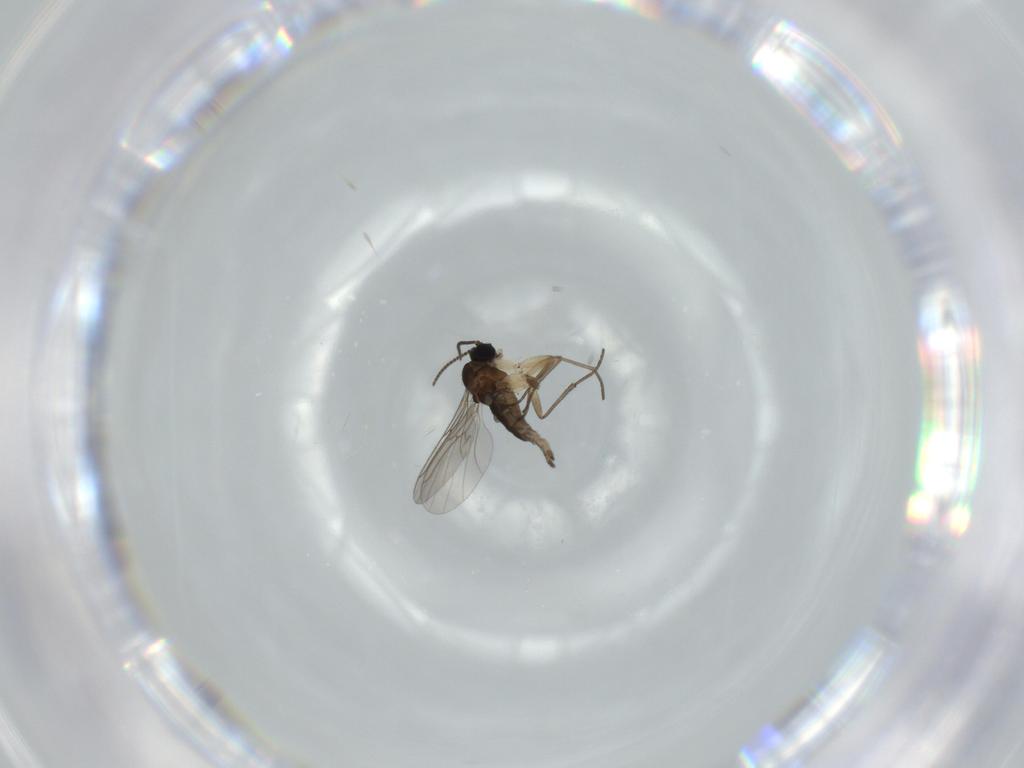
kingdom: Animalia
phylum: Arthropoda
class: Insecta
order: Diptera
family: Sciaridae
